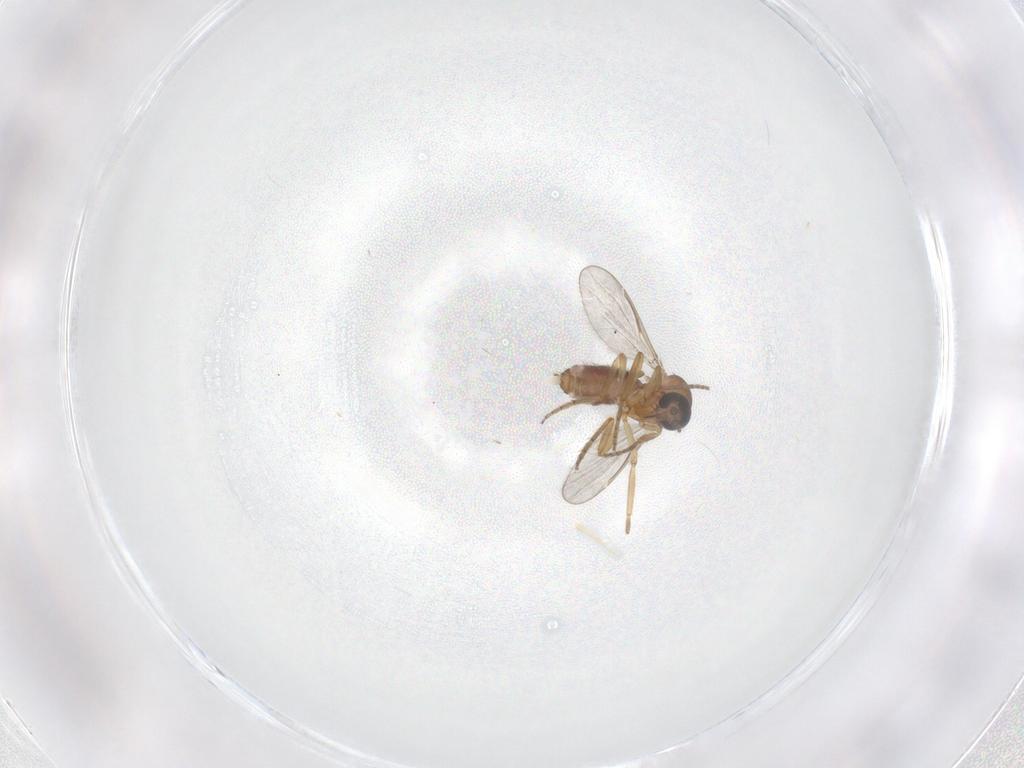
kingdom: Animalia
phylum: Arthropoda
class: Insecta
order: Diptera
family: Ceratopogonidae
